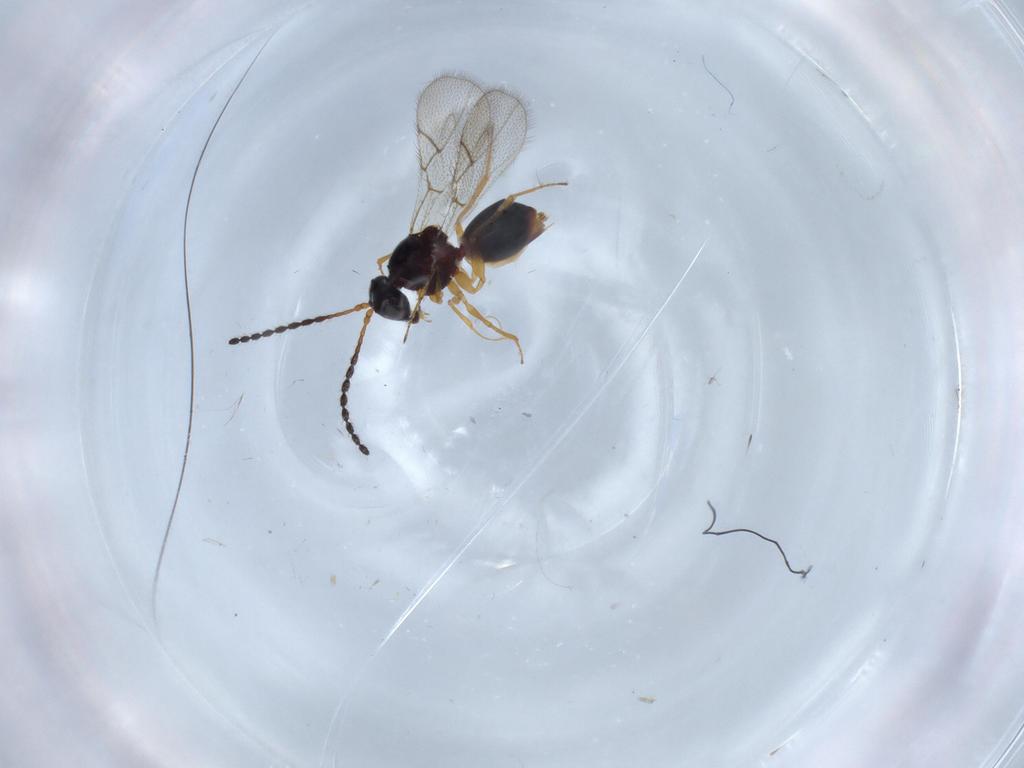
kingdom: Animalia
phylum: Arthropoda
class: Insecta
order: Hymenoptera
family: Figitidae
